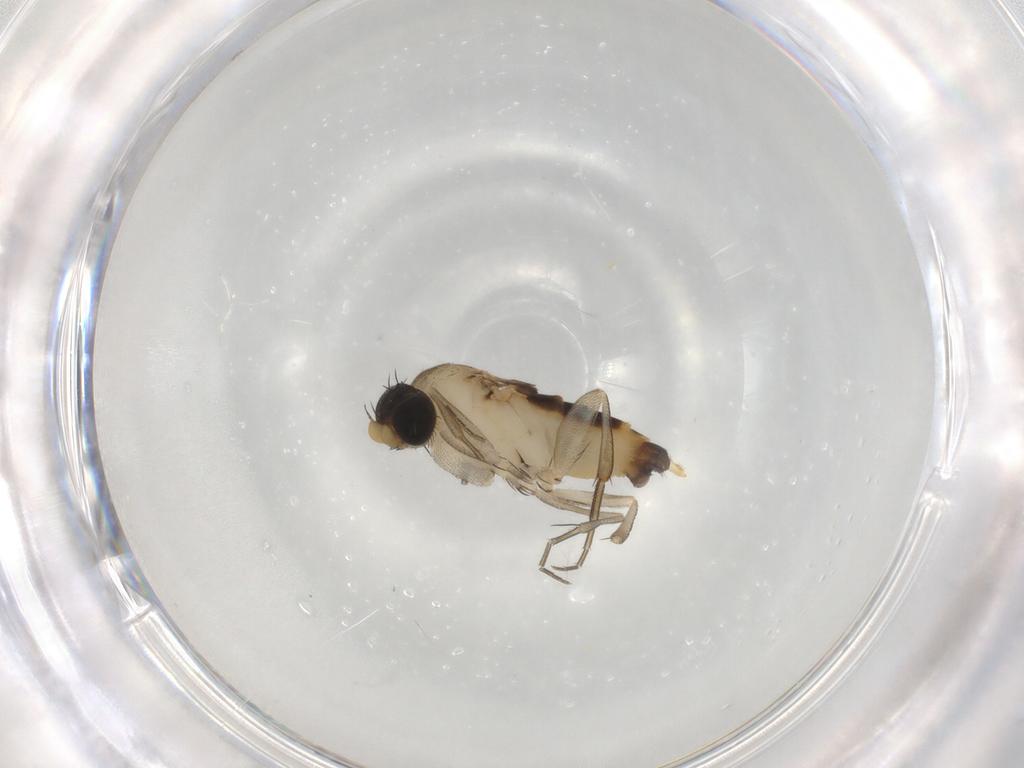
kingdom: Animalia
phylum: Arthropoda
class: Insecta
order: Diptera
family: Phoridae
